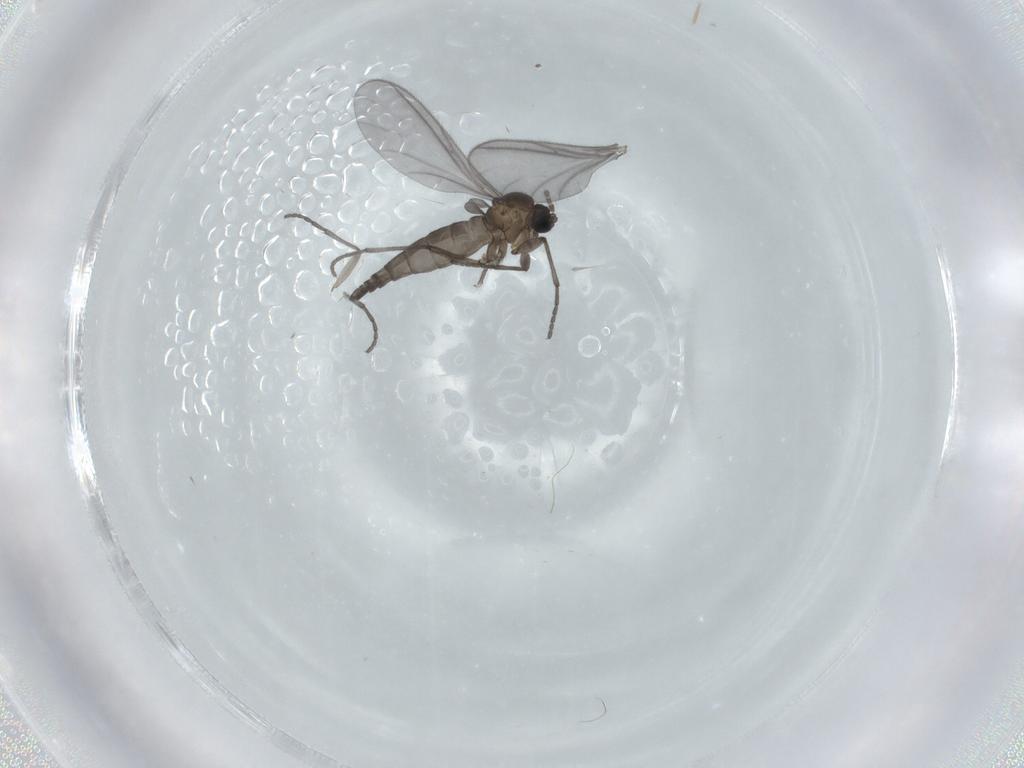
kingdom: Animalia
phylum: Arthropoda
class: Insecta
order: Diptera
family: Sciaridae
